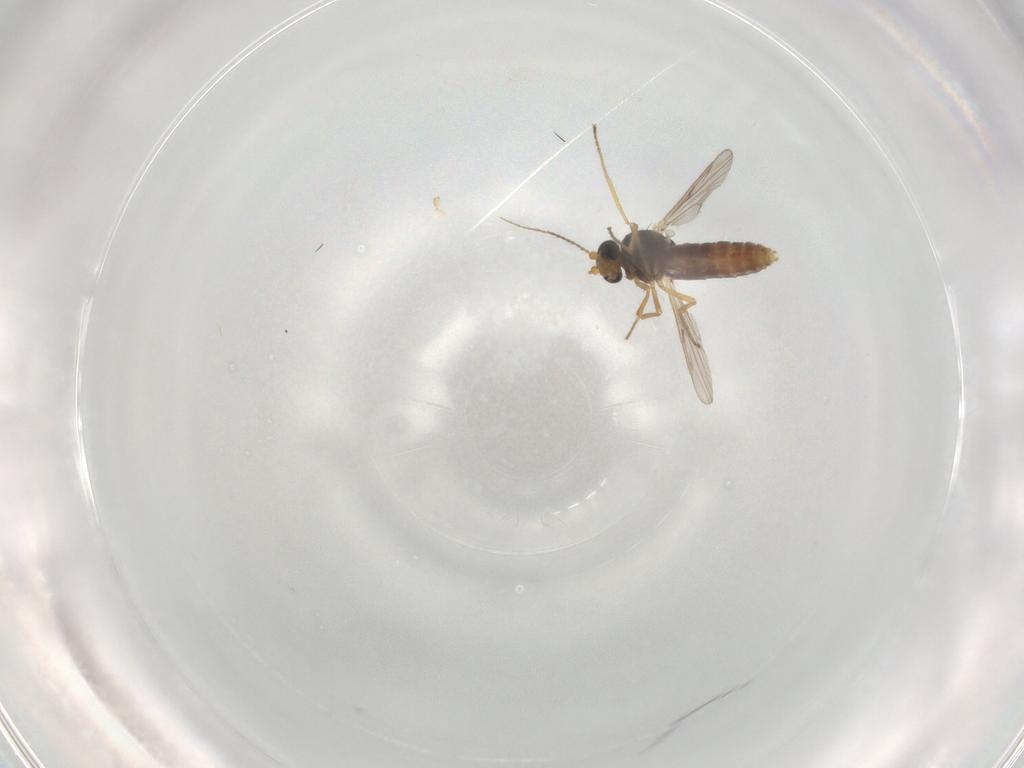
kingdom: Animalia
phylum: Arthropoda
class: Insecta
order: Diptera
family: Ceratopogonidae
